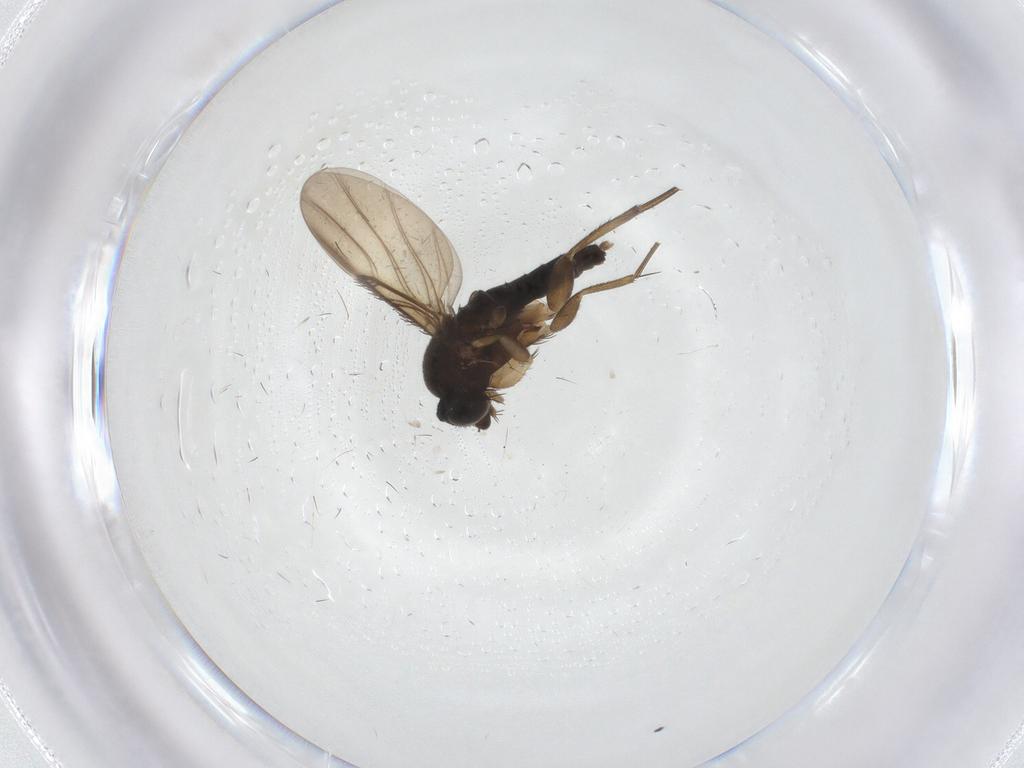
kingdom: Animalia
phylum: Arthropoda
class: Insecta
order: Diptera
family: Phoridae
